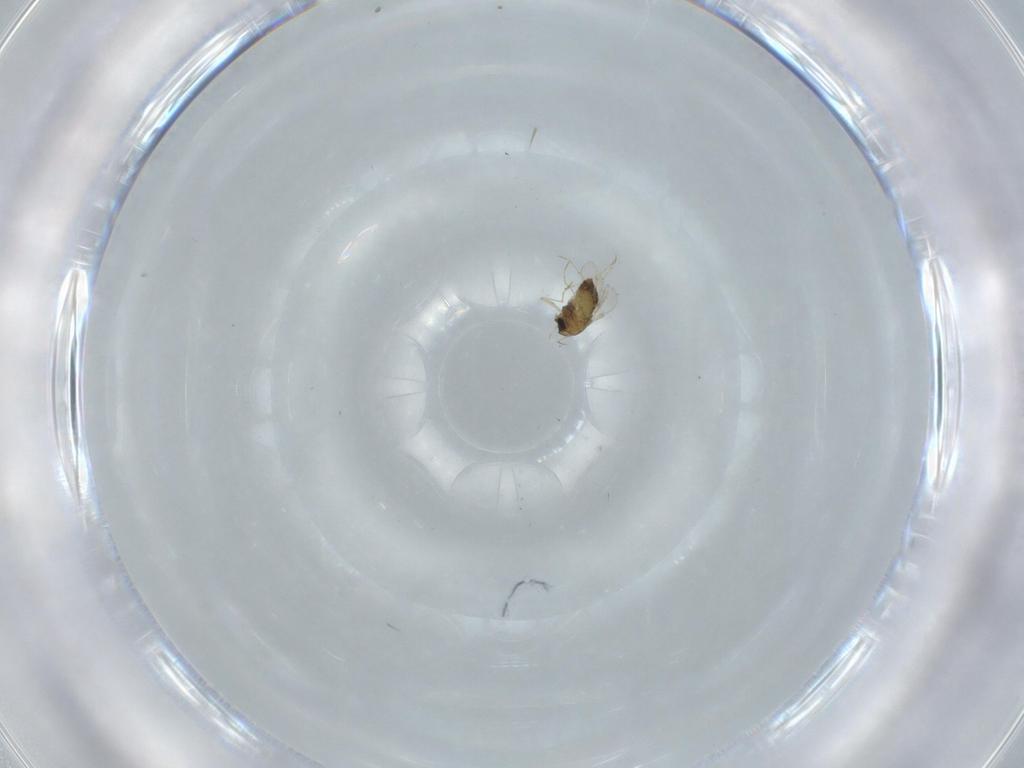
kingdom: Animalia
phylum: Arthropoda
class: Insecta
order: Diptera
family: Chironomidae
